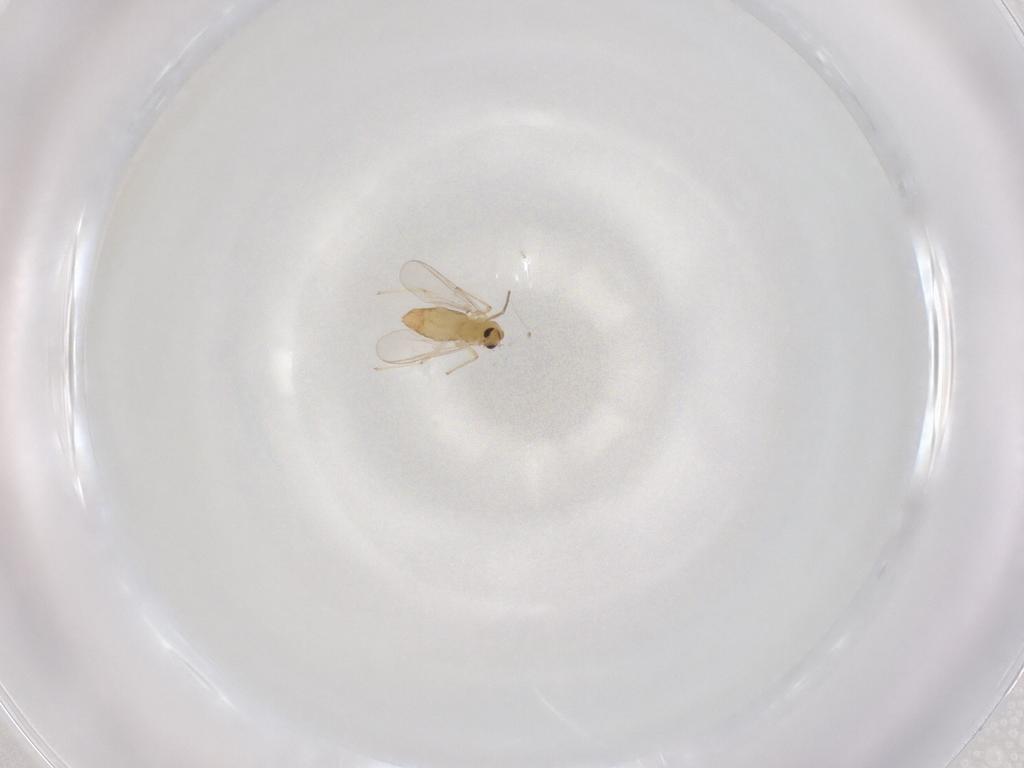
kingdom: Animalia
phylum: Arthropoda
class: Insecta
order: Diptera
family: Chironomidae
